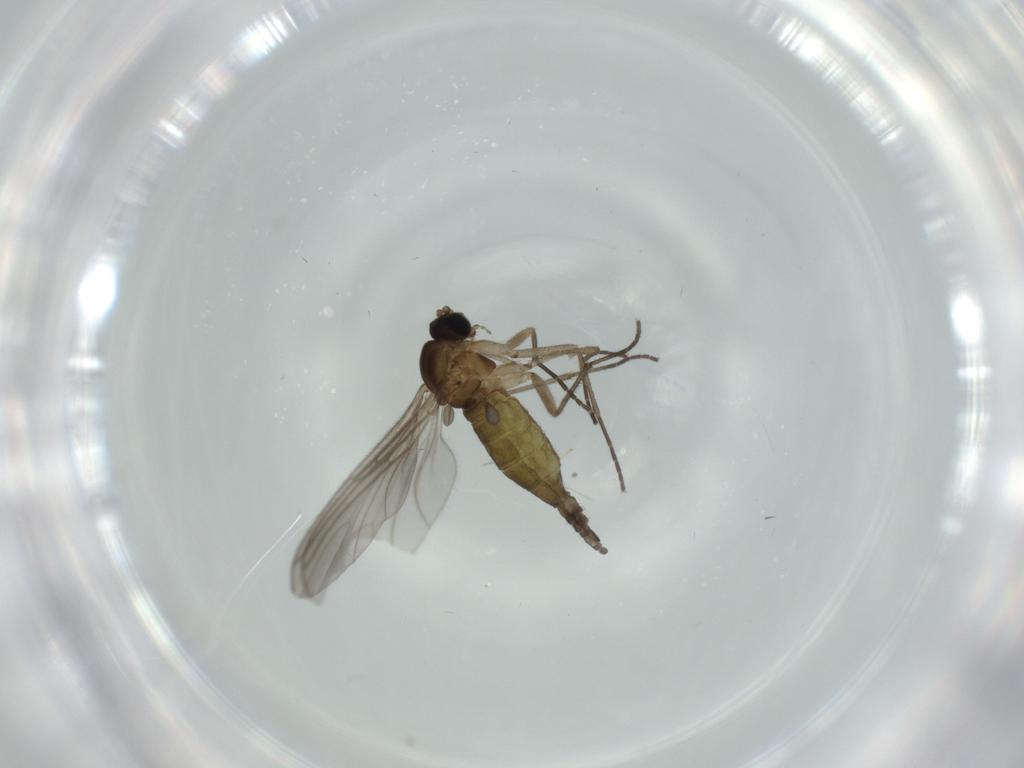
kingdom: Animalia
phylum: Arthropoda
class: Insecta
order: Diptera
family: Sciaridae
